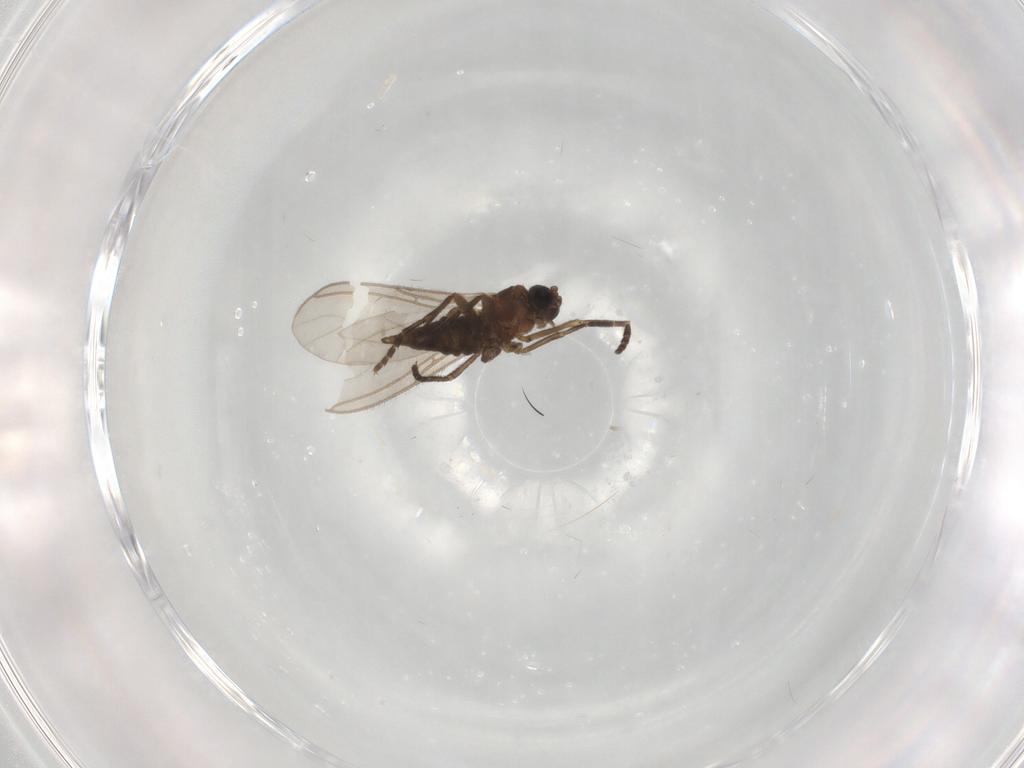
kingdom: Animalia
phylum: Arthropoda
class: Insecta
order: Diptera
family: Sciaridae
